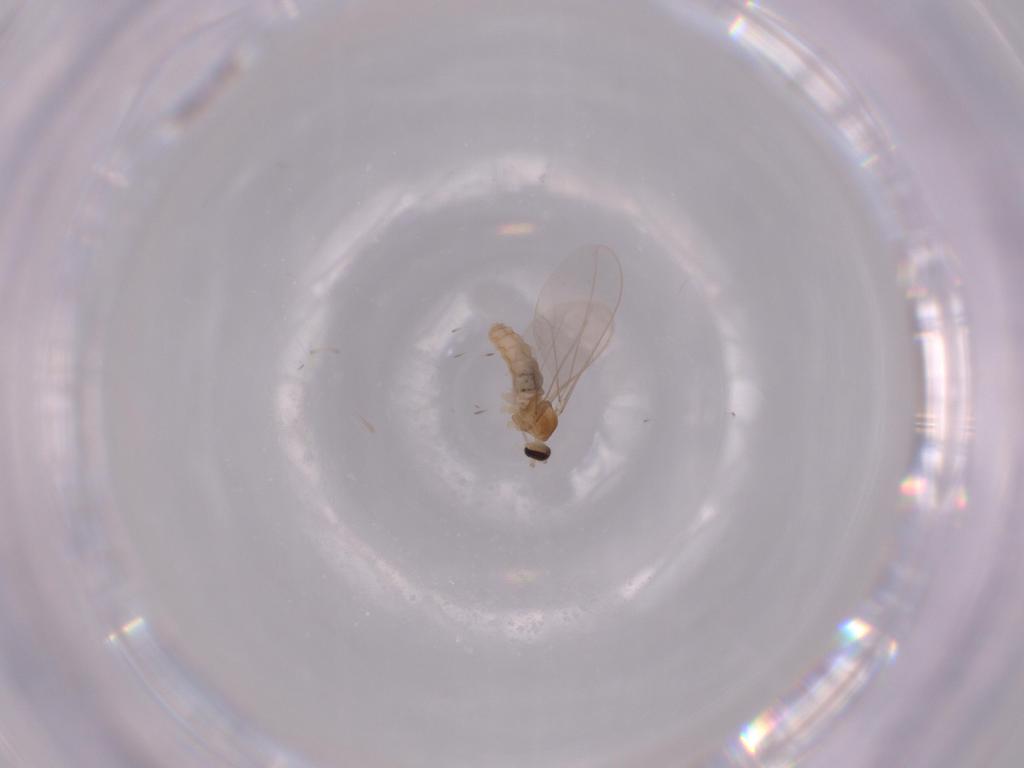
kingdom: Animalia
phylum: Arthropoda
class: Insecta
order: Diptera
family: Cecidomyiidae
